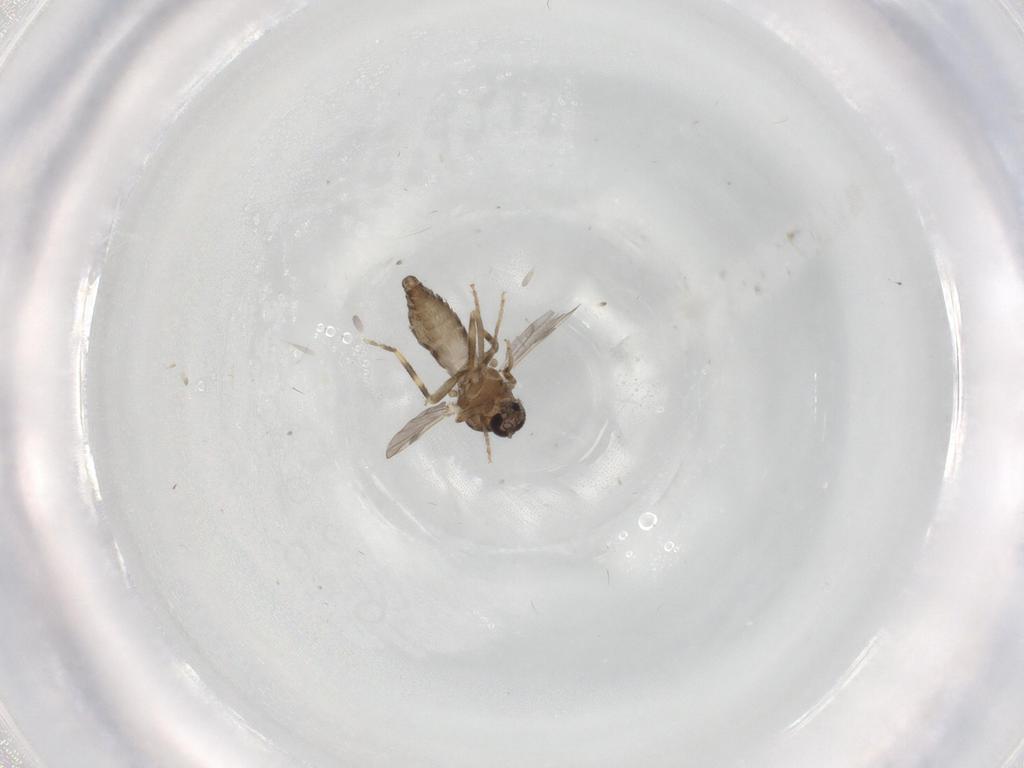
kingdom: Animalia
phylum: Arthropoda
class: Insecta
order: Diptera
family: Ceratopogonidae
